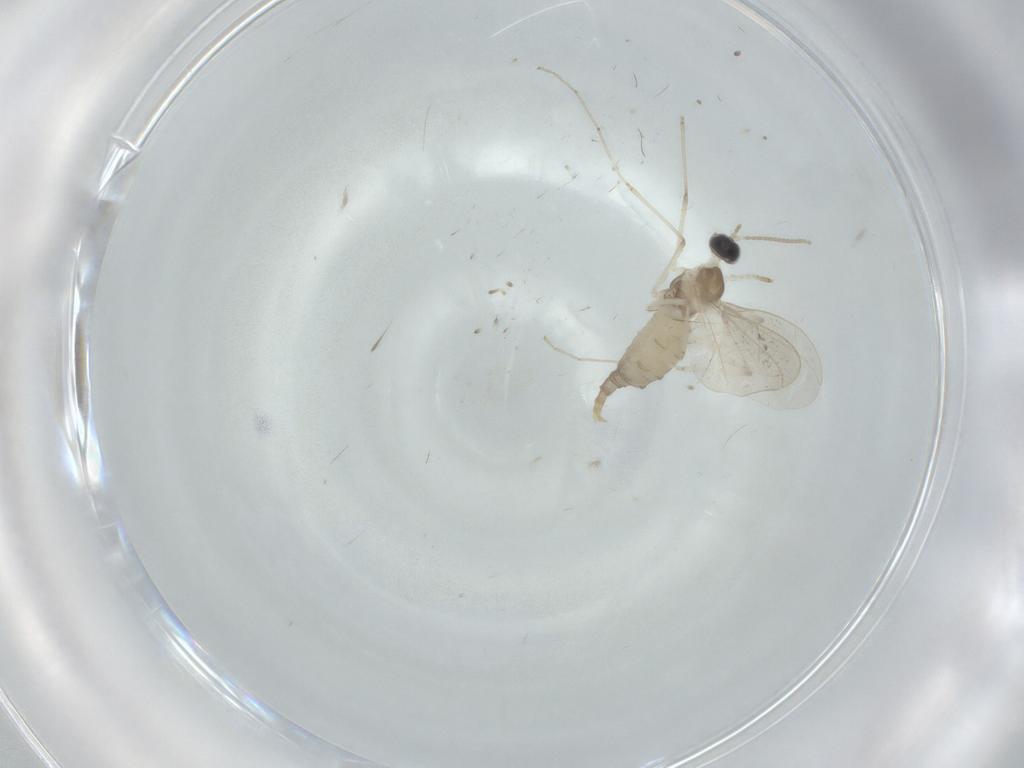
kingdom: Animalia
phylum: Arthropoda
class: Insecta
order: Diptera
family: Cecidomyiidae
